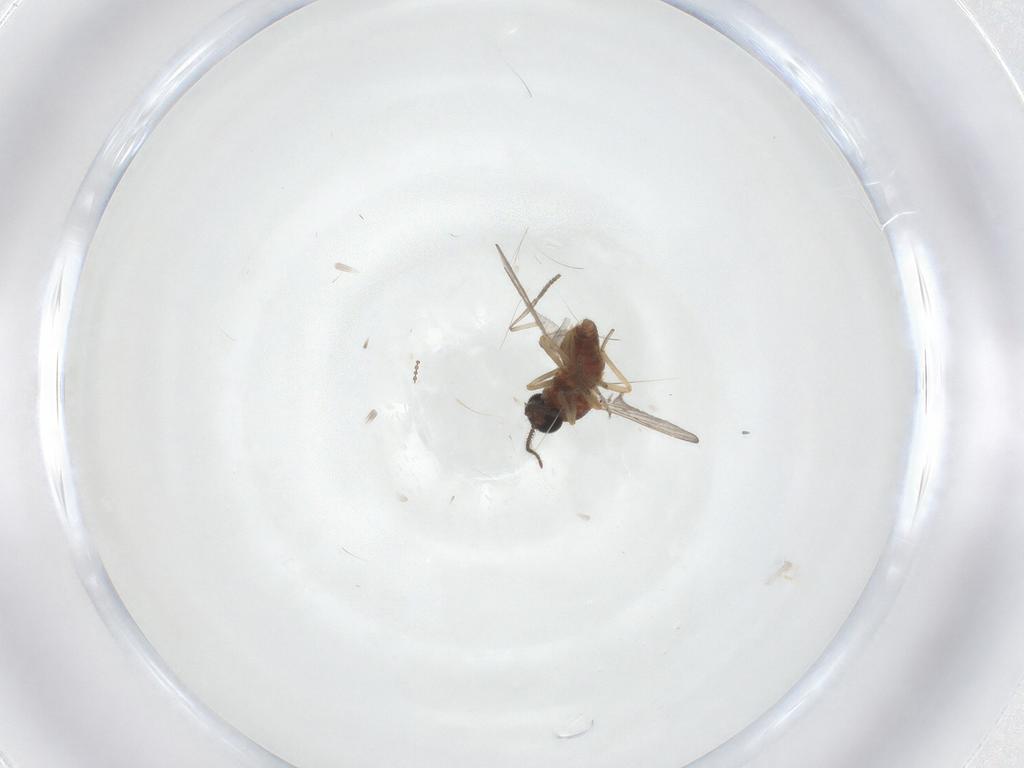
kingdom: Animalia
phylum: Arthropoda
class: Insecta
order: Diptera
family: Ceratopogonidae
